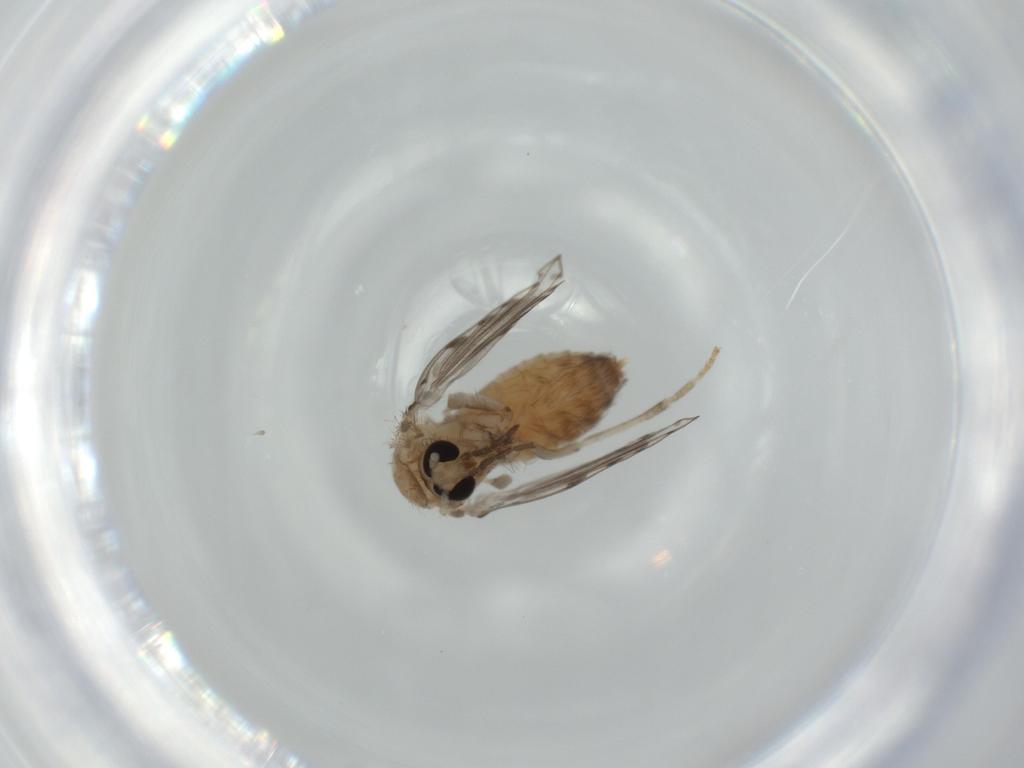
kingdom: Animalia
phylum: Arthropoda
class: Insecta
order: Diptera
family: Psychodidae
